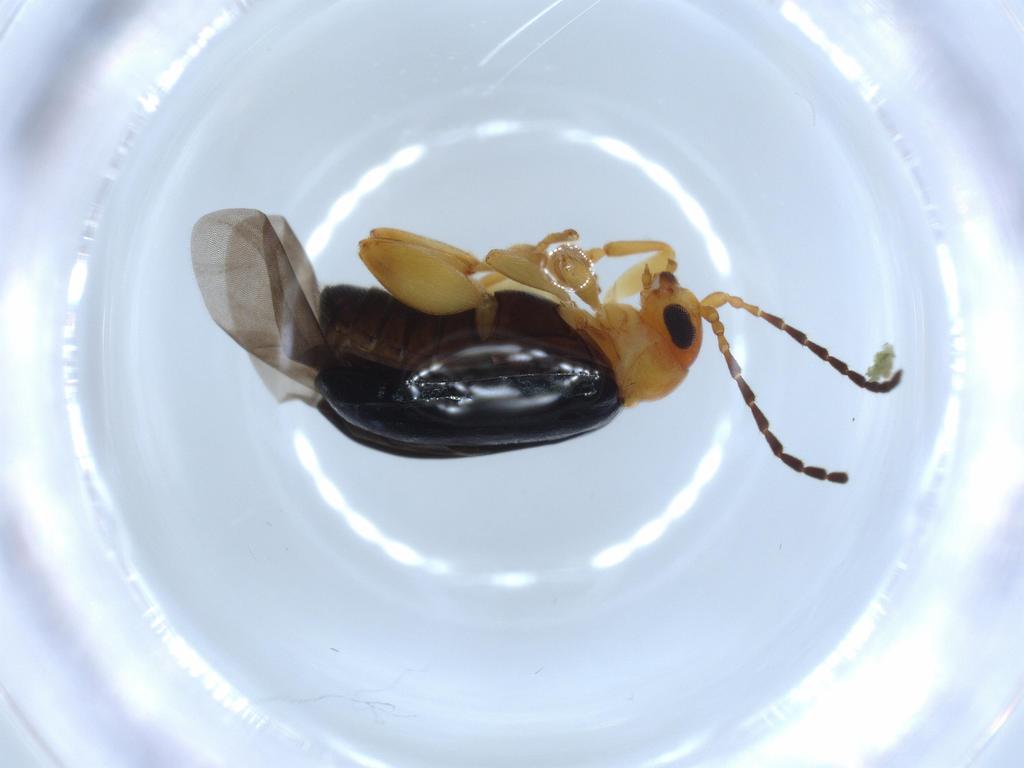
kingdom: Animalia
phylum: Arthropoda
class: Insecta
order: Coleoptera
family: Chrysomelidae
